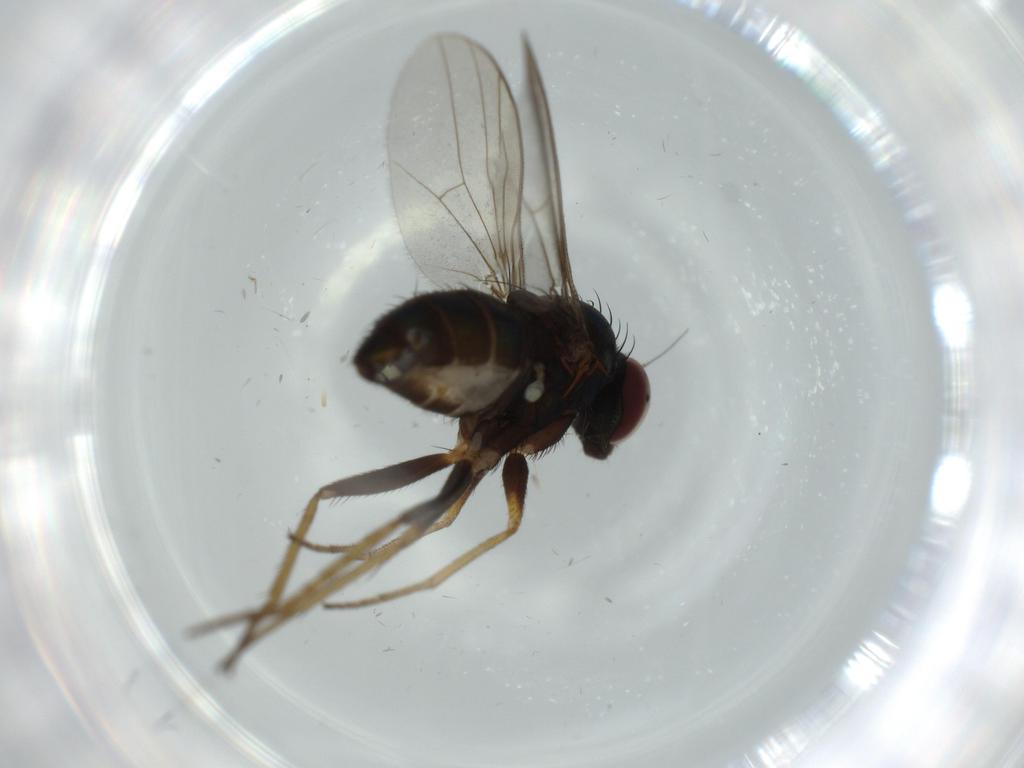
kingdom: Animalia
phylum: Arthropoda
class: Insecta
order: Diptera
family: Dolichopodidae
